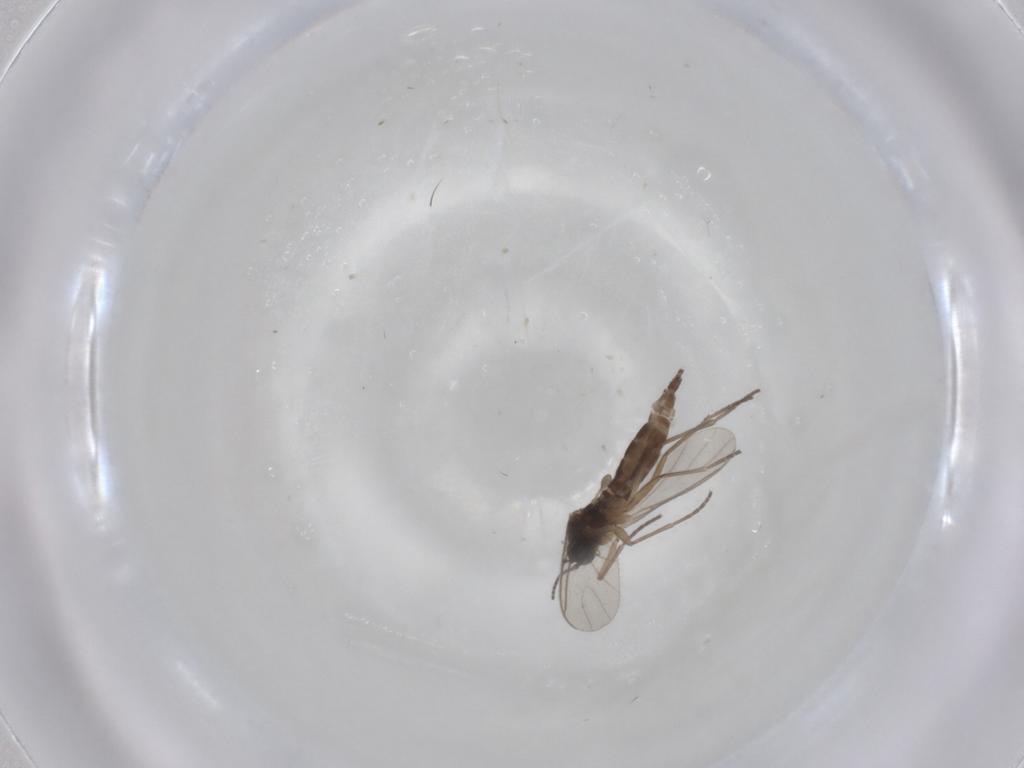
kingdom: Animalia
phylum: Arthropoda
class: Insecta
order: Diptera
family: Sciaridae
